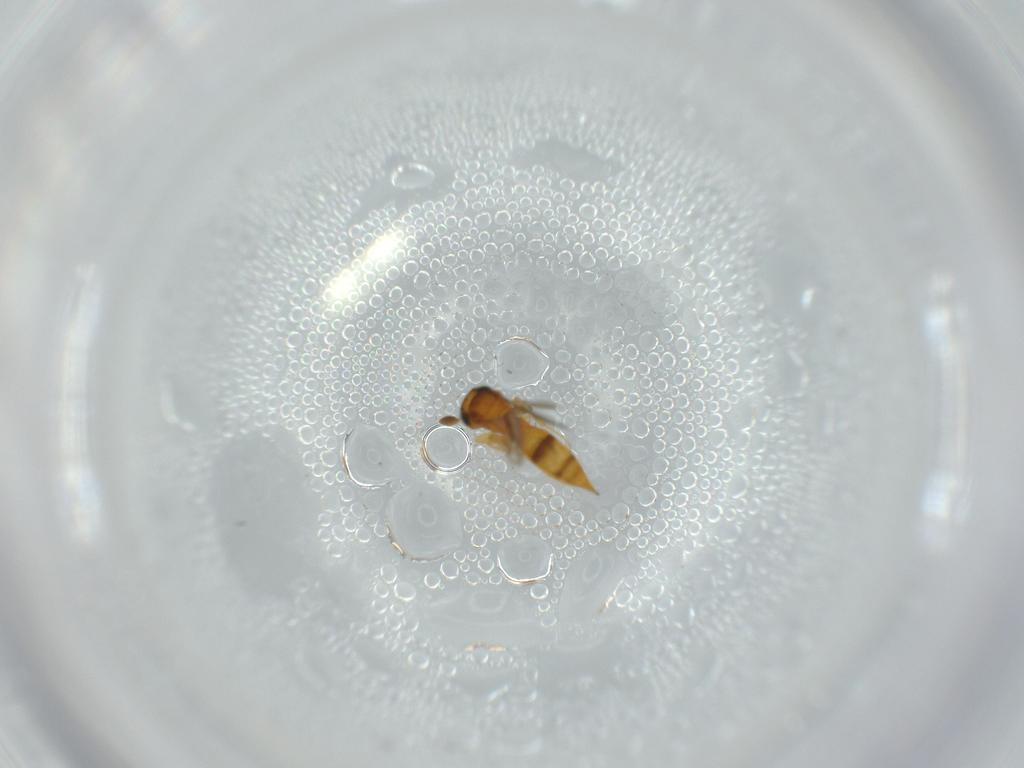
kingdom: Animalia
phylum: Arthropoda
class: Insecta
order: Hymenoptera
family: Scelionidae
